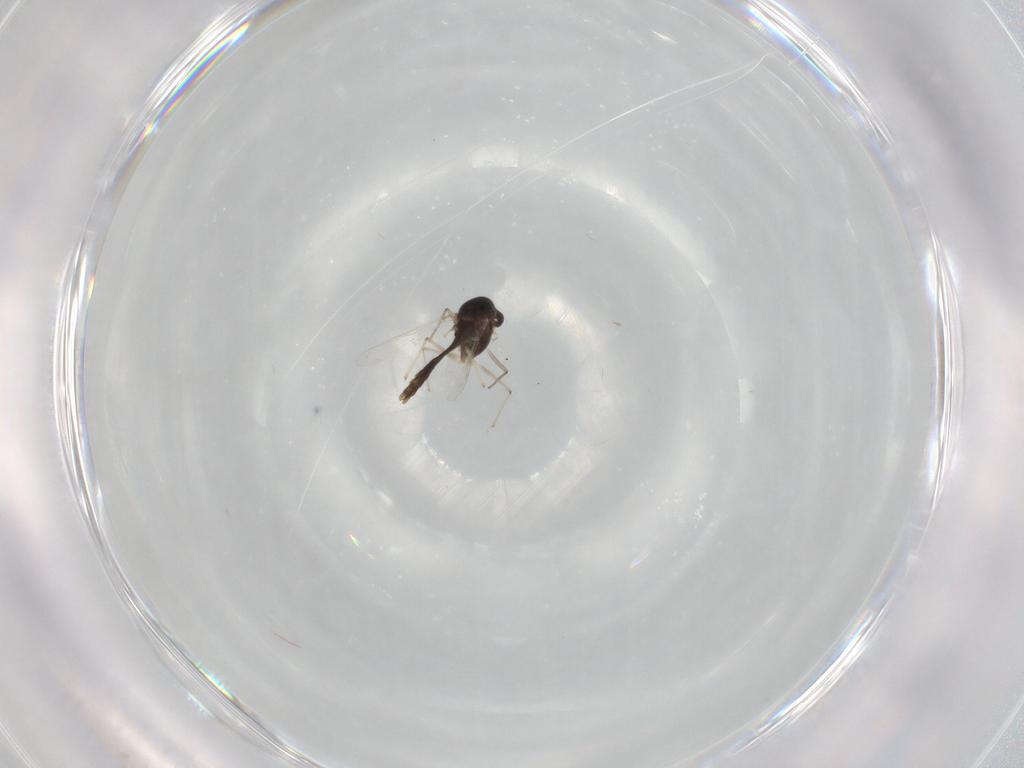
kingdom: Animalia
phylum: Arthropoda
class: Insecta
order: Diptera
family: Chironomidae
